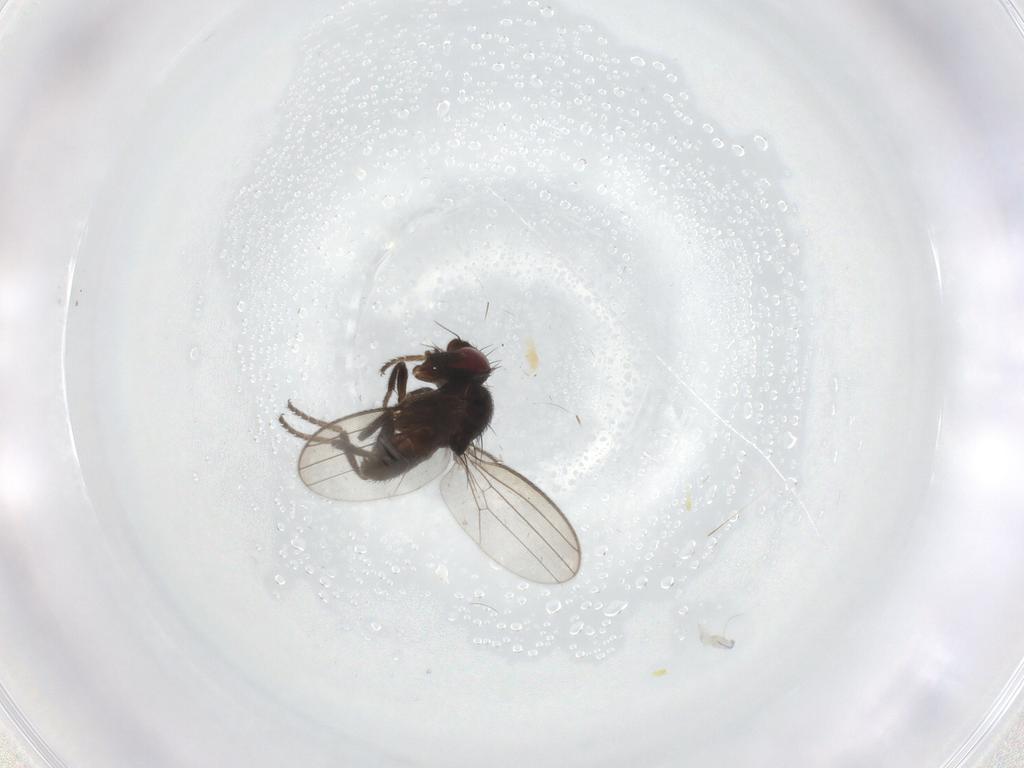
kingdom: Animalia
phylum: Arthropoda
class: Insecta
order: Diptera
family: Milichiidae
